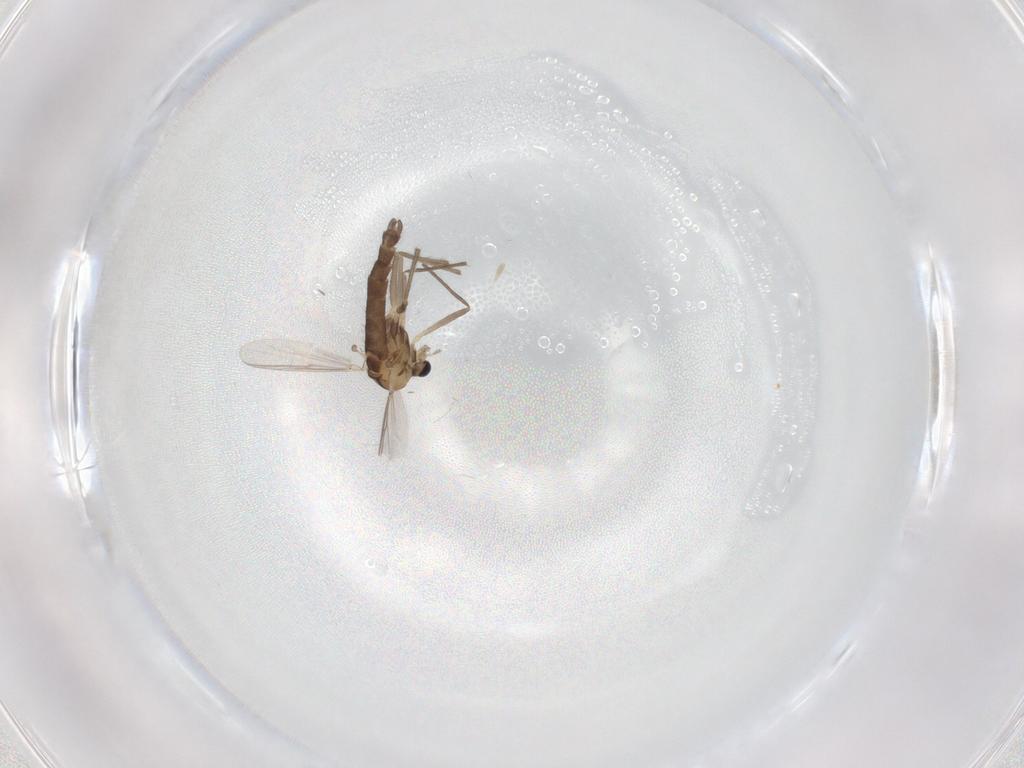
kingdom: Animalia
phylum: Arthropoda
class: Insecta
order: Diptera
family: Chironomidae
